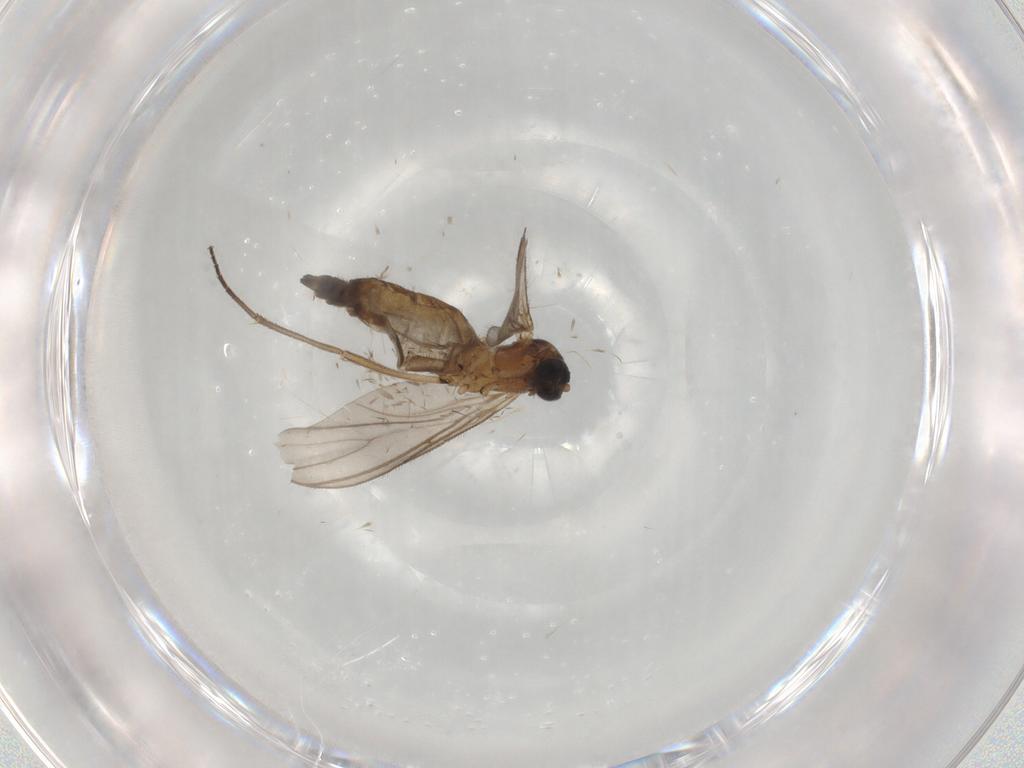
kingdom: Animalia
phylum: Arthropoda
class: Insecta
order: Diptera
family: Sciaridae
